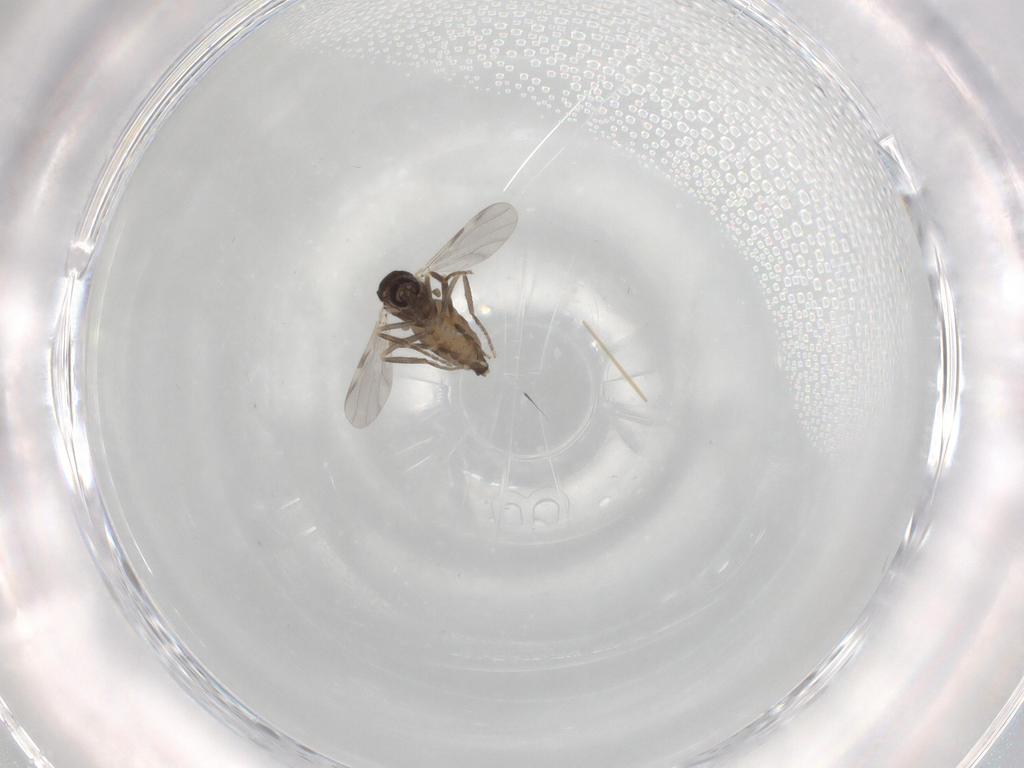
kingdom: Animalia
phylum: Arthropoda
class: Insecta
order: Diptera
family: Ceratopogonidae
